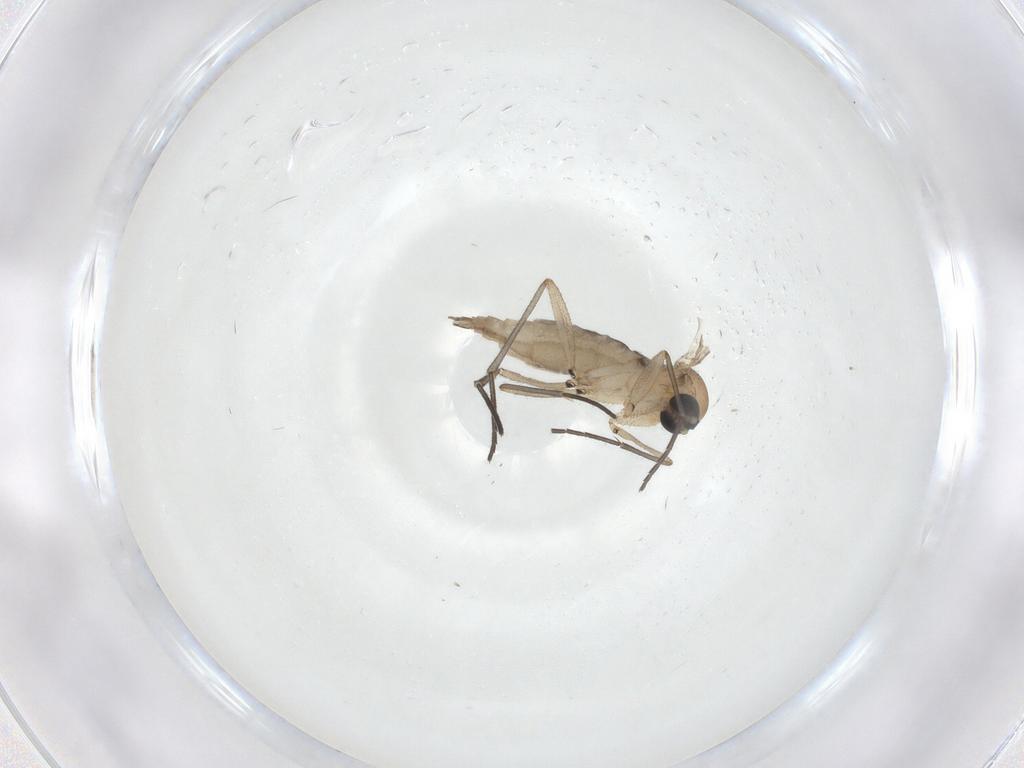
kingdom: Animalia
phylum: Arthropoda
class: Insecta
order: Diptera
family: Sciaridae
